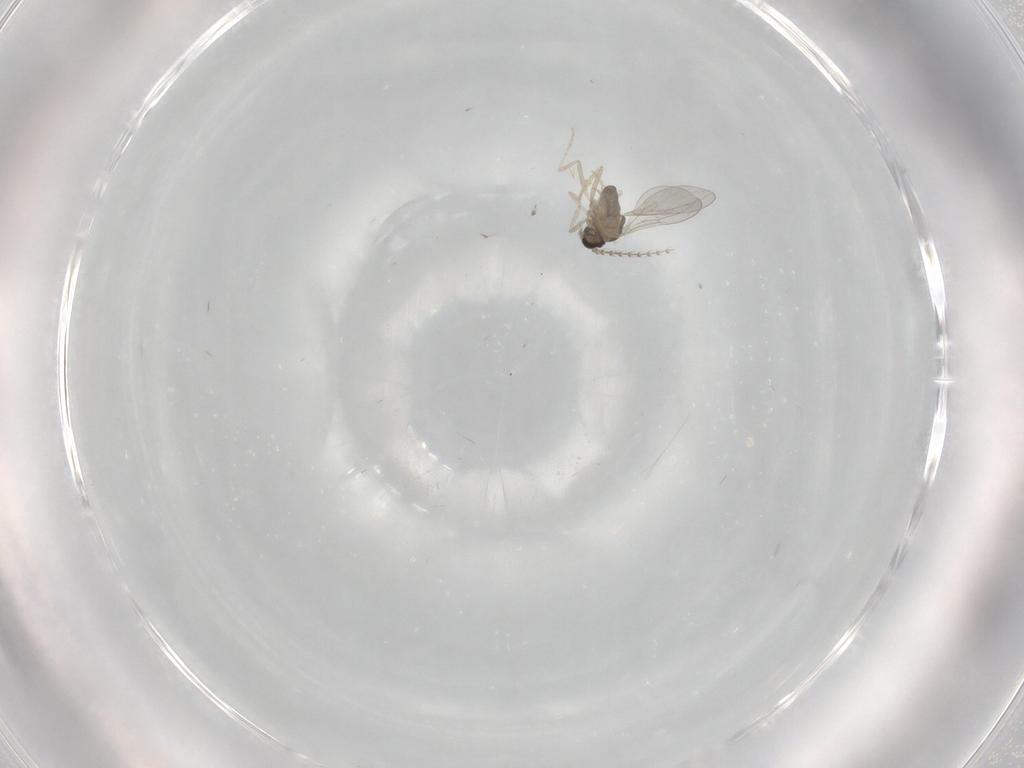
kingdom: Animalia
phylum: Arthropoda
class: Insecta
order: Diptera
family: Cecidomyiidae
